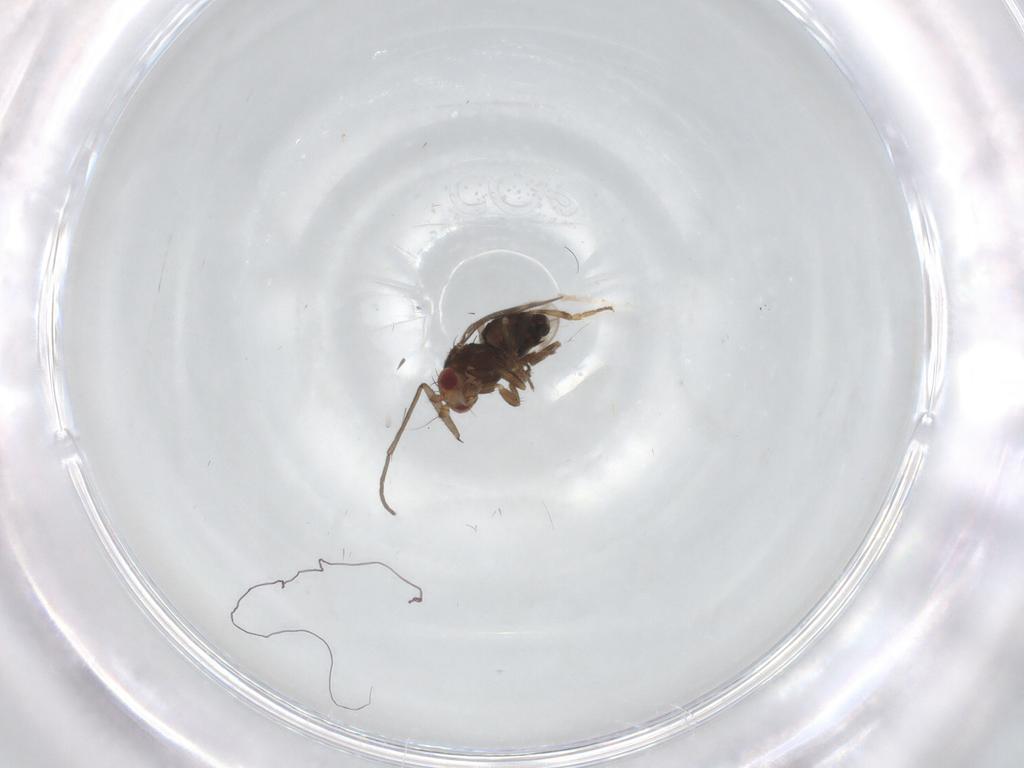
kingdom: Animalia
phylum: Arthropoda
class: Insecta
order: Diptera
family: Sphaeroceridae
